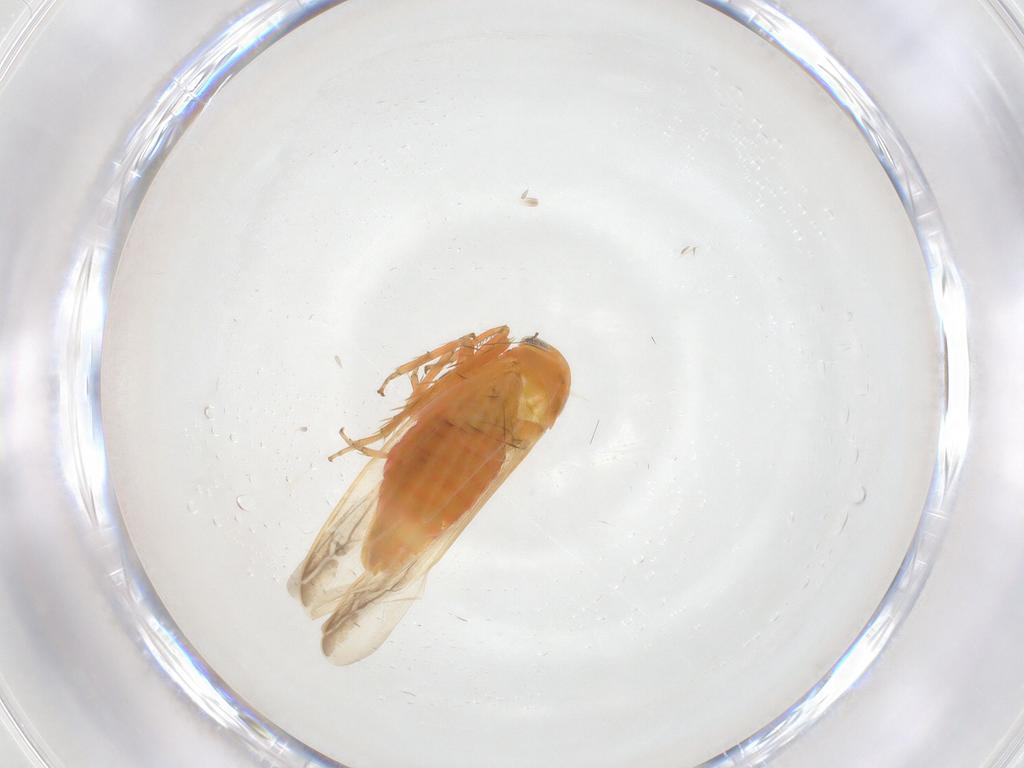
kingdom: Animalia
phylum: Arthropoda
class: Insecta
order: Hemiptera
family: Cicadellidae
